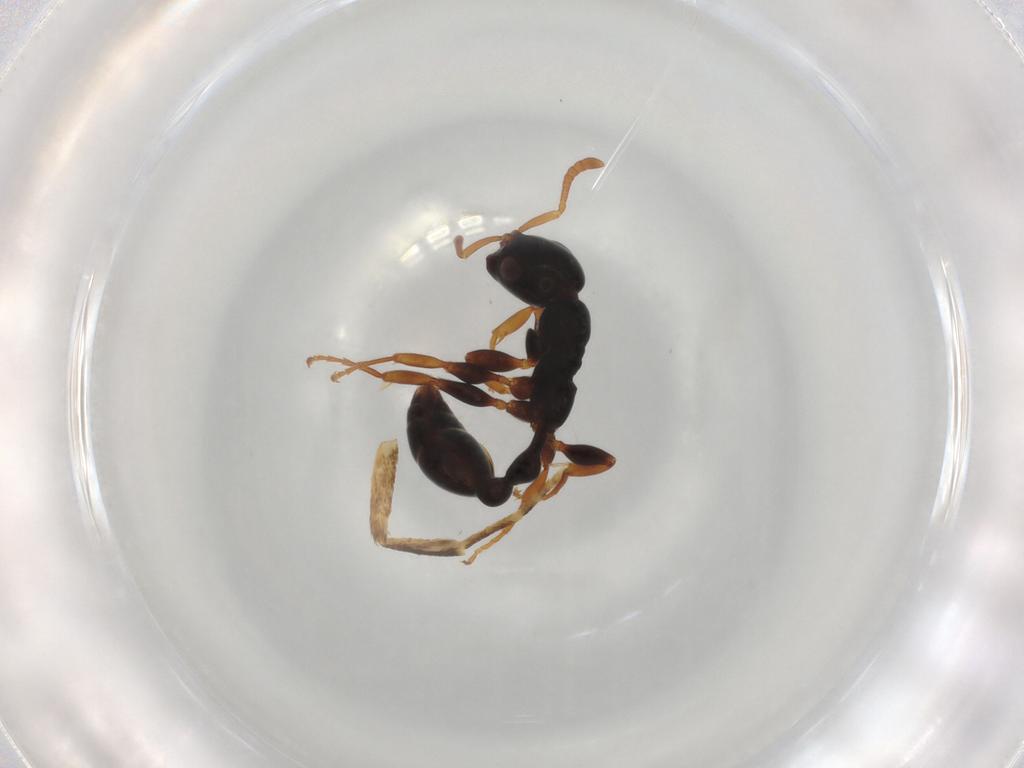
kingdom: Animalia
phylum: Arthropoda
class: Insecta
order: Hymenoptera
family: Formicidae
